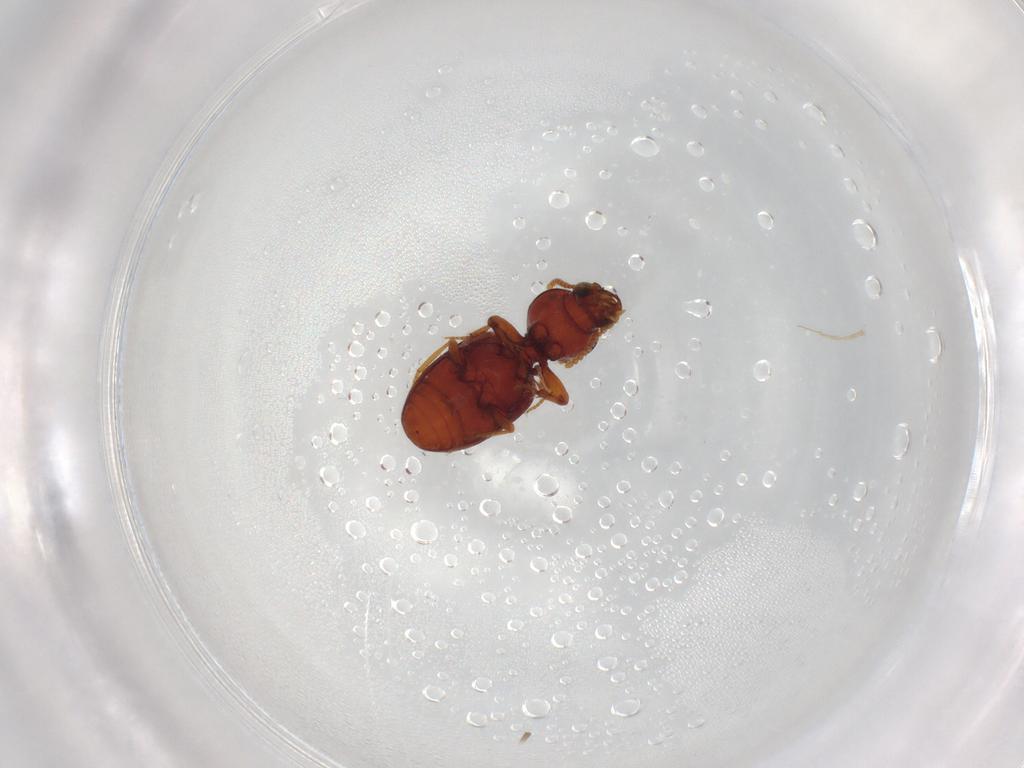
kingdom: Animalia
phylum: Arthropoda
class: Insecta
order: Coleoptera
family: Carabidae
